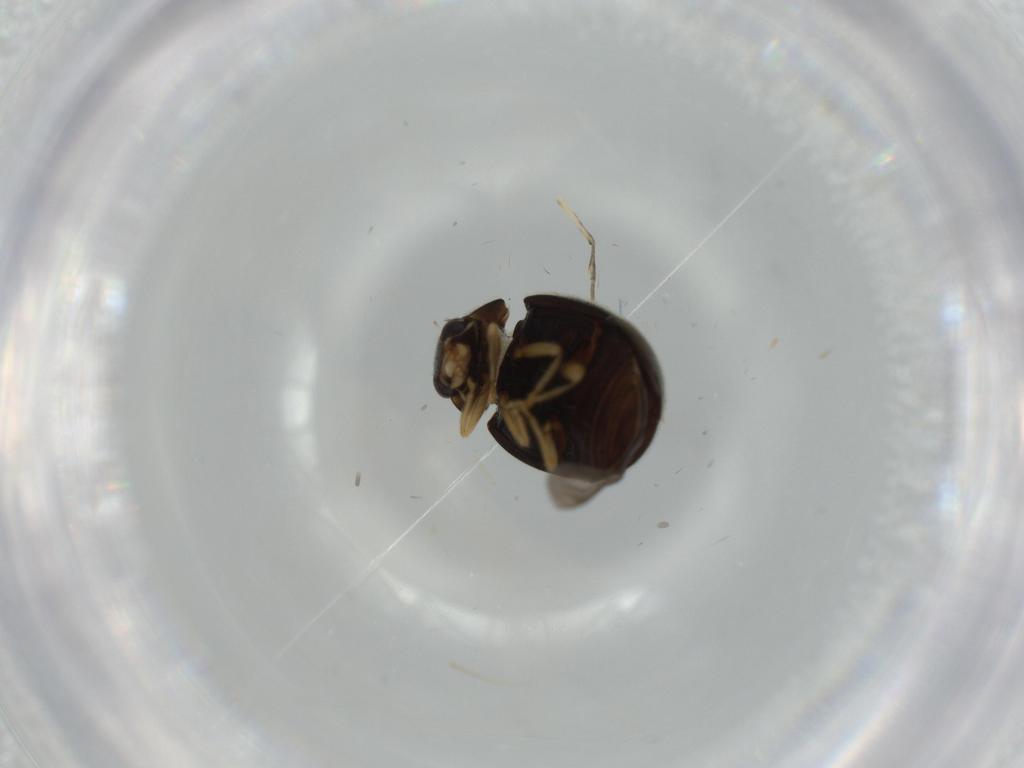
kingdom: Animalia
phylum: Arthropoda
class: Insecta
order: Coleoptera
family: Coccinellidae
